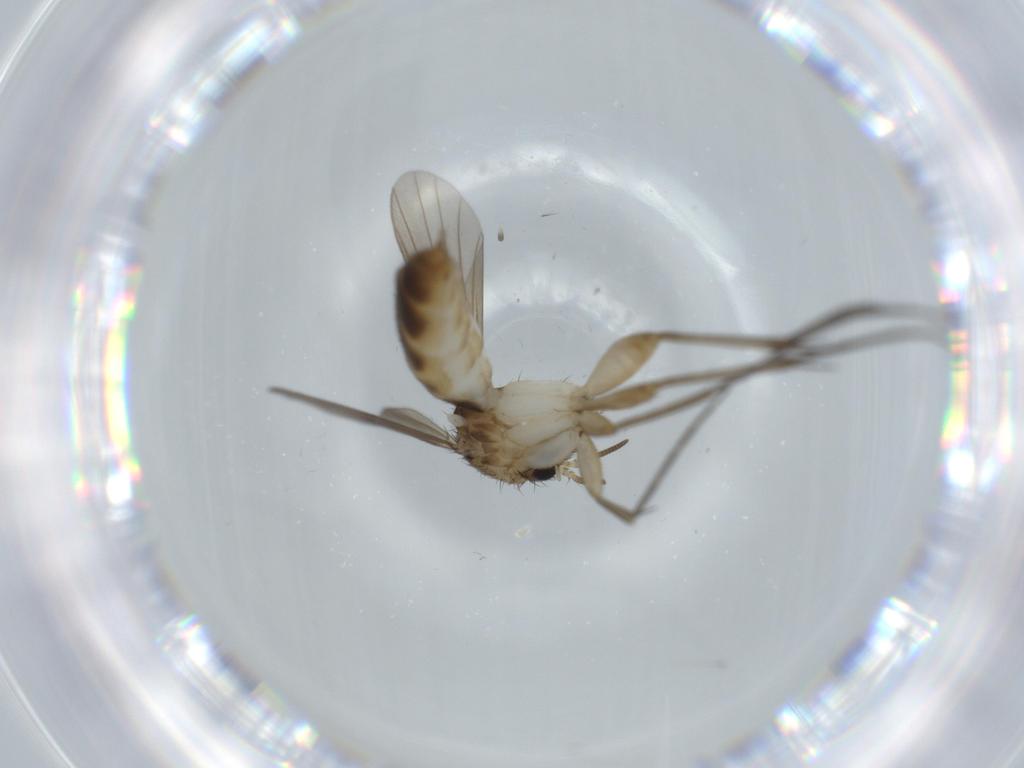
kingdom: Animalia
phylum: Arthropoda
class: Insecta
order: Diptera
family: Mycetophilidae
